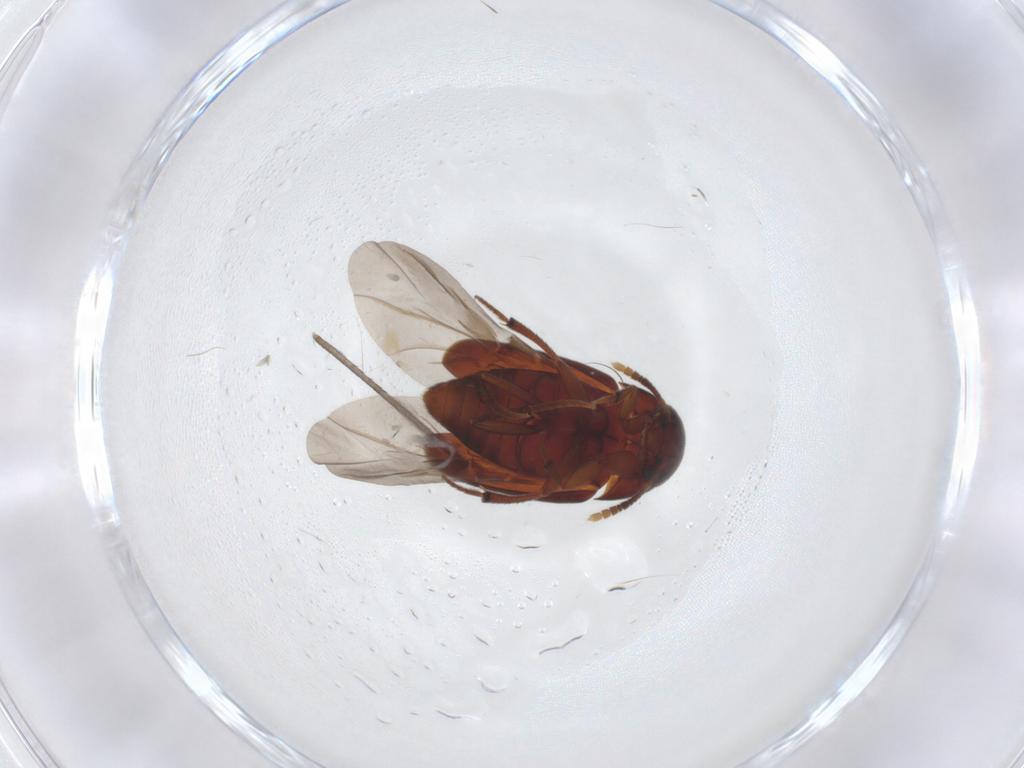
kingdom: Animalia
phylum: Arthropoda
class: Insecta
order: Coleoptera
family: Leiodidae
